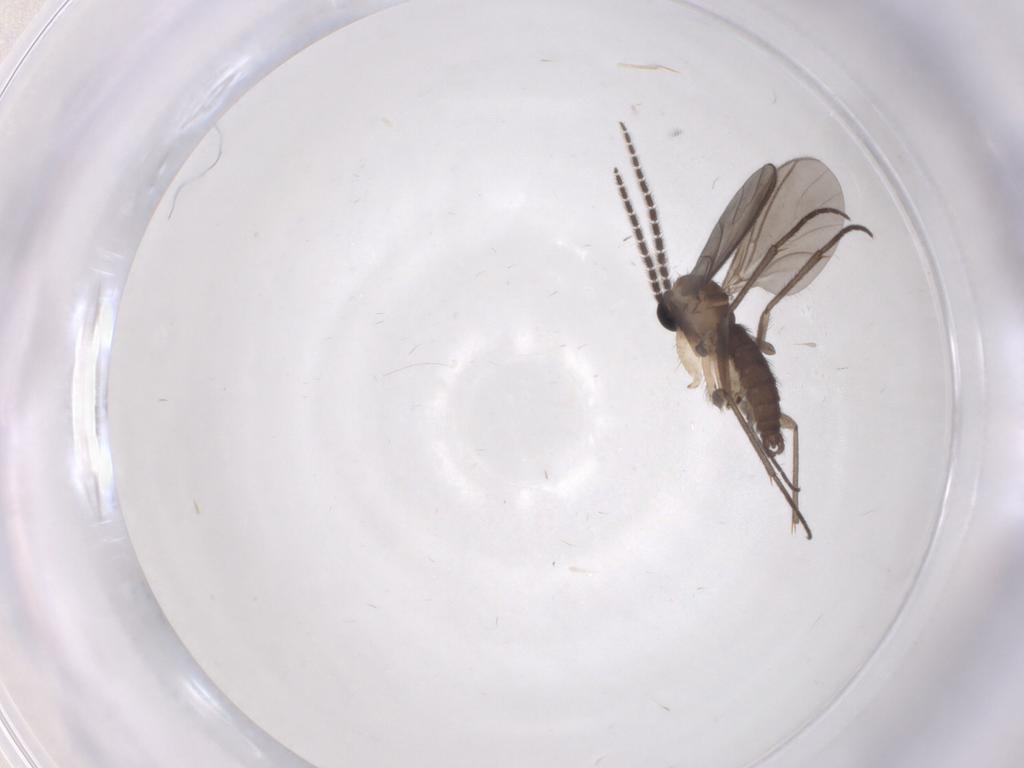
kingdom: Animalia
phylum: Arthropoda
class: Insecta
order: Diptera
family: Sciaridae
